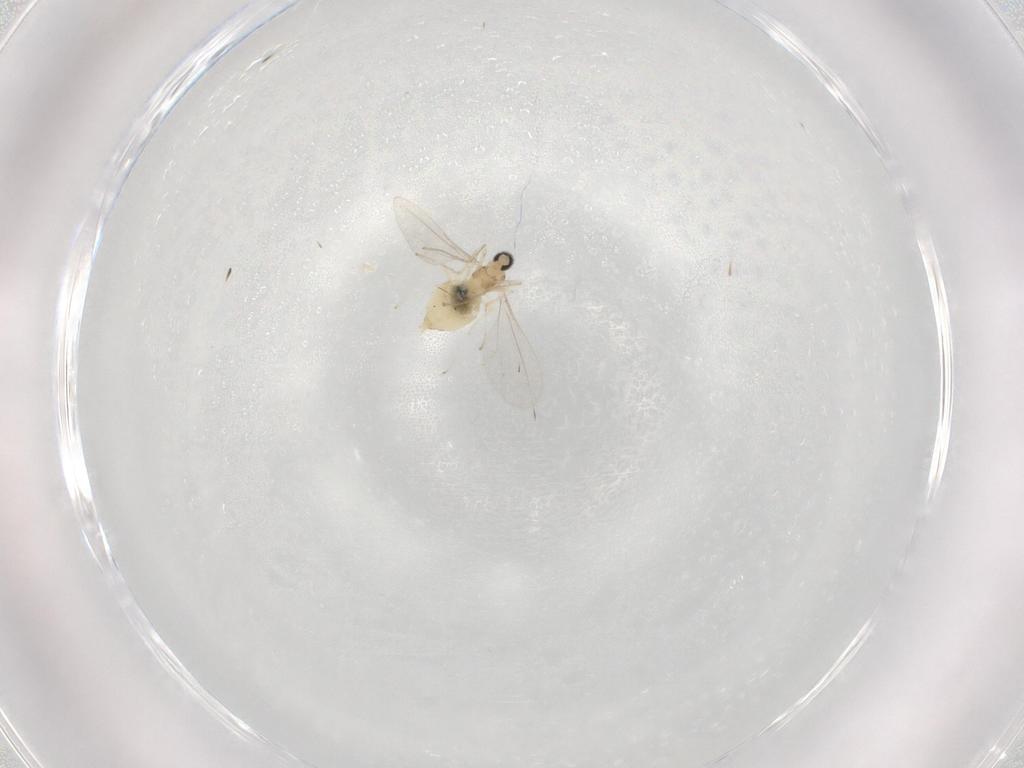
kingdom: Animalia
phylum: Arthropoda
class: Insecta
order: Diptera
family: Cecidomyiidae
